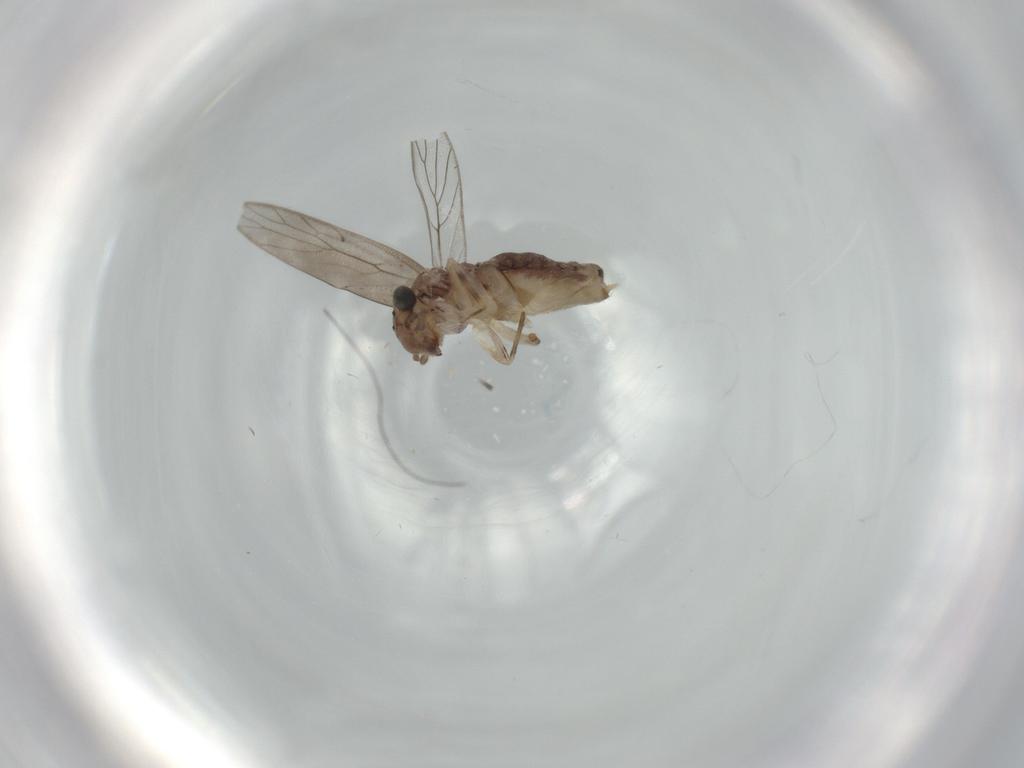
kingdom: Animalia
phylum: Arthropoda
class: Insecta
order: Psocodea
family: Lepidopsocidae
